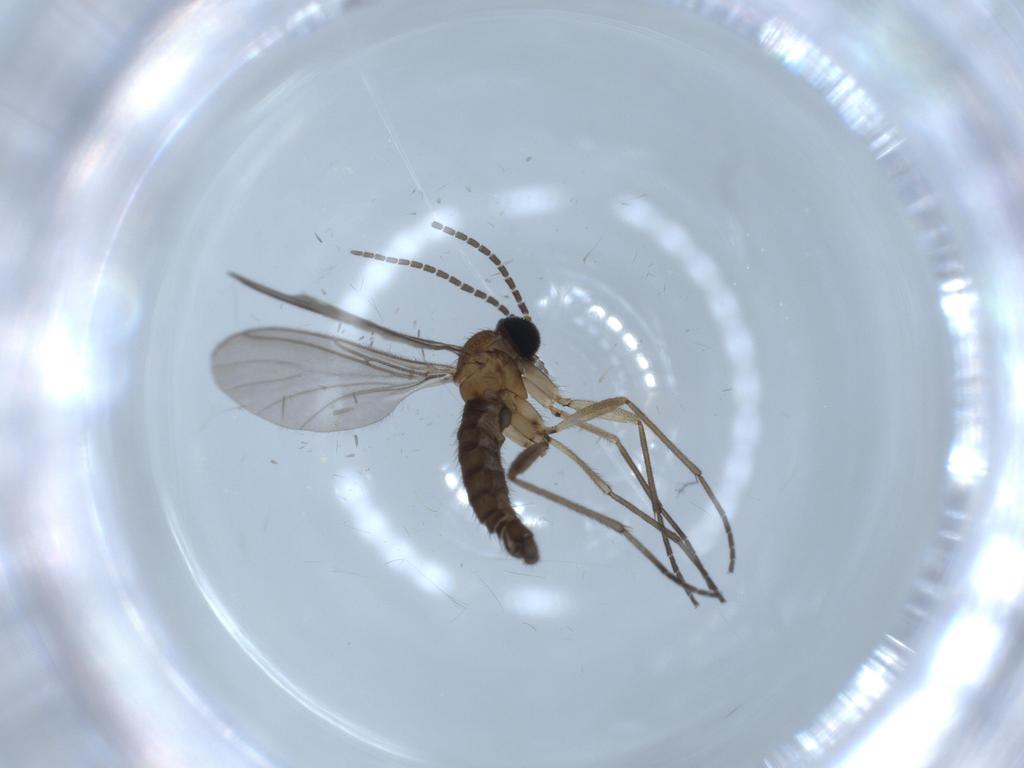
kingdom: Animalia
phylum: Arthropoda
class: Insecta
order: Diptera
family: Sciaridae
